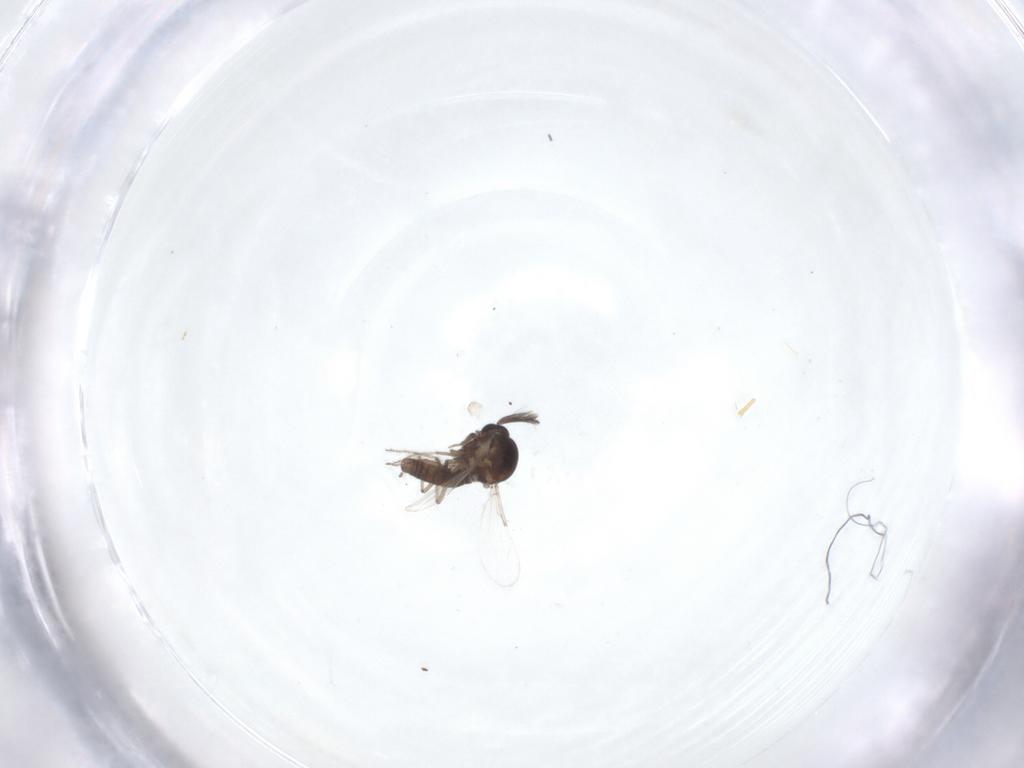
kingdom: Animalia
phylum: Arthropoda
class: Insecta
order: Diptera
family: Ceratopogonidae
